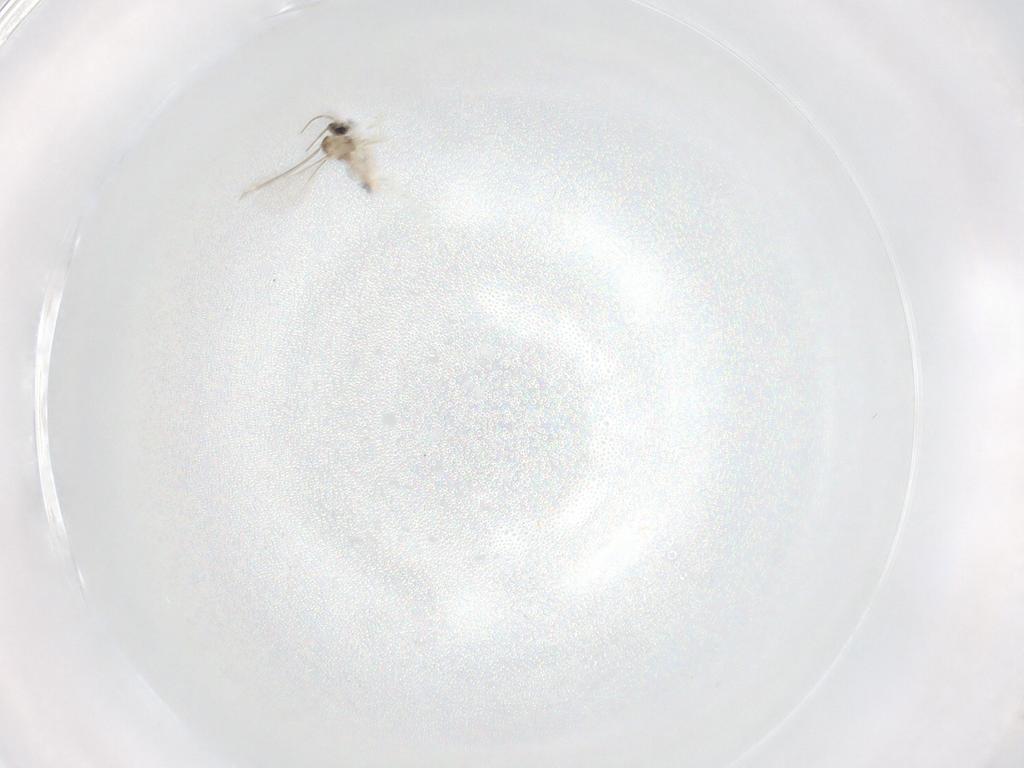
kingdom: Animalia
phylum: Arthropoda
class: Insecta
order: Diptera
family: Cecidomyiidae
